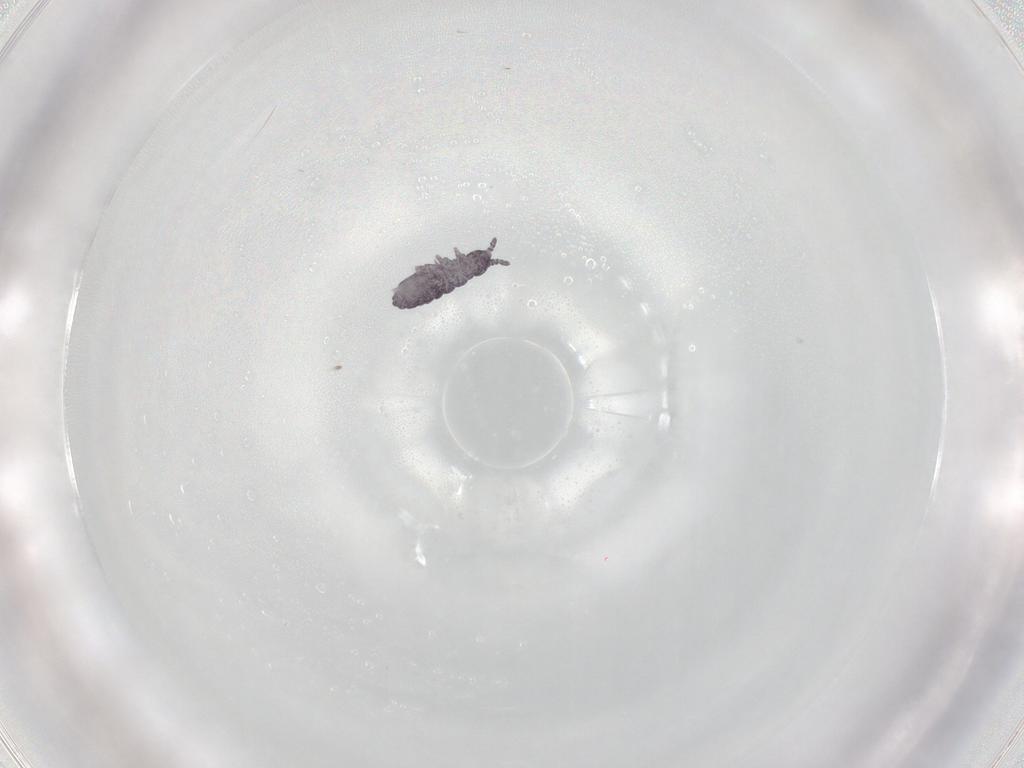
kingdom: Animalia
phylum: Arthropoda
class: Collembola
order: Poduromorpha
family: Brachystomellidae
